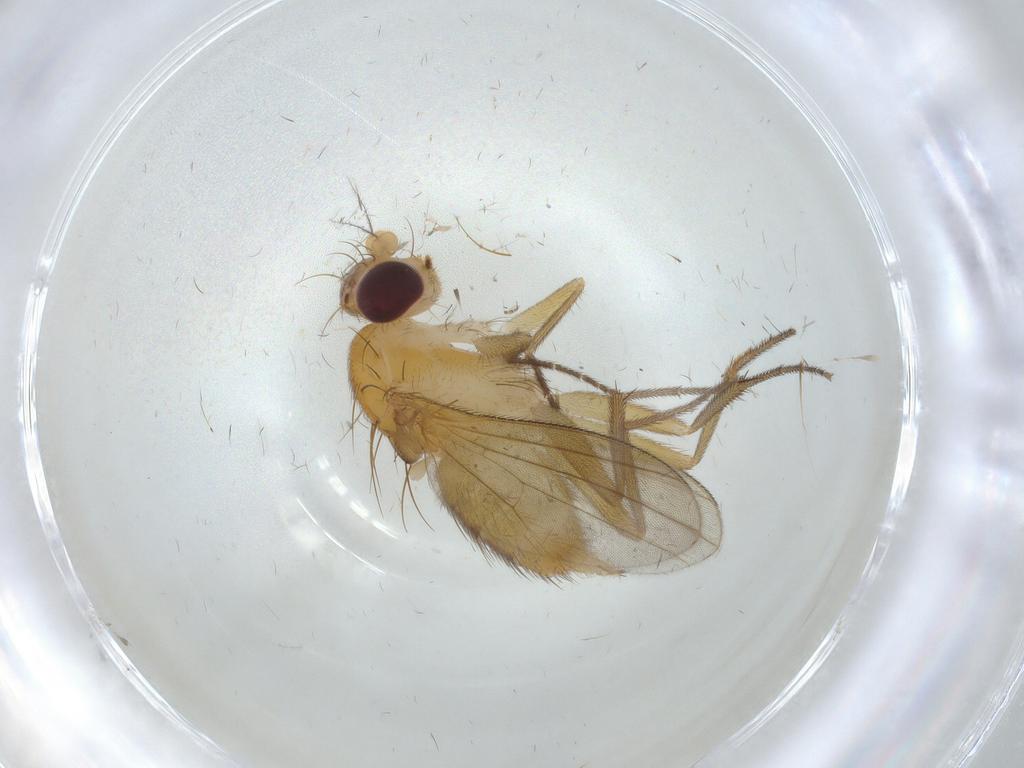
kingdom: Animalia
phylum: Arthropoda
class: Insecta
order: Diptera
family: Clusiidae
